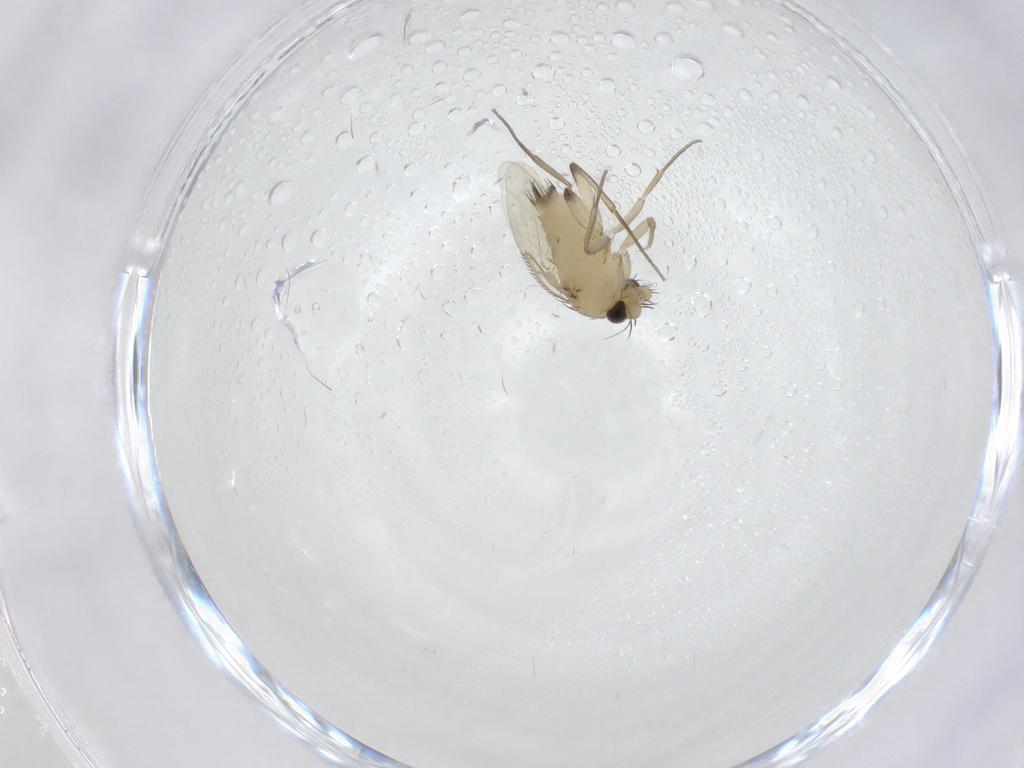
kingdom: Animalia
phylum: Arthropoda
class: Insecta
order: Diptera
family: Phoridae
